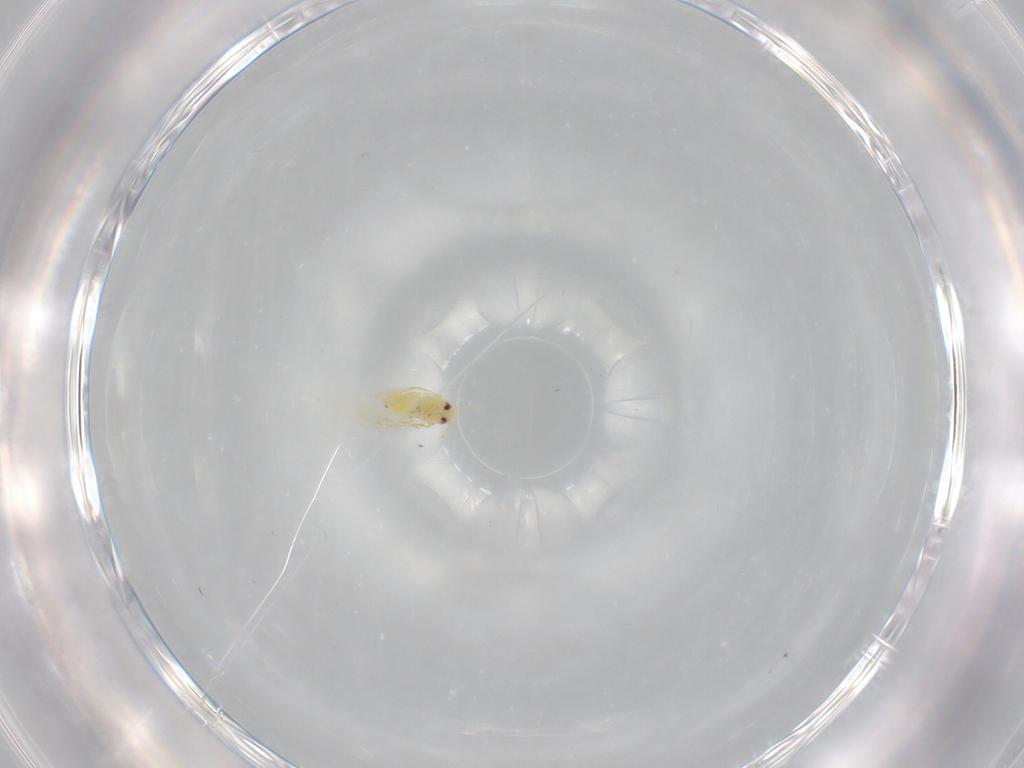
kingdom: Animalia
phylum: Arthropoda
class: Insecta
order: Hemiptera
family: Aleyrodidae
